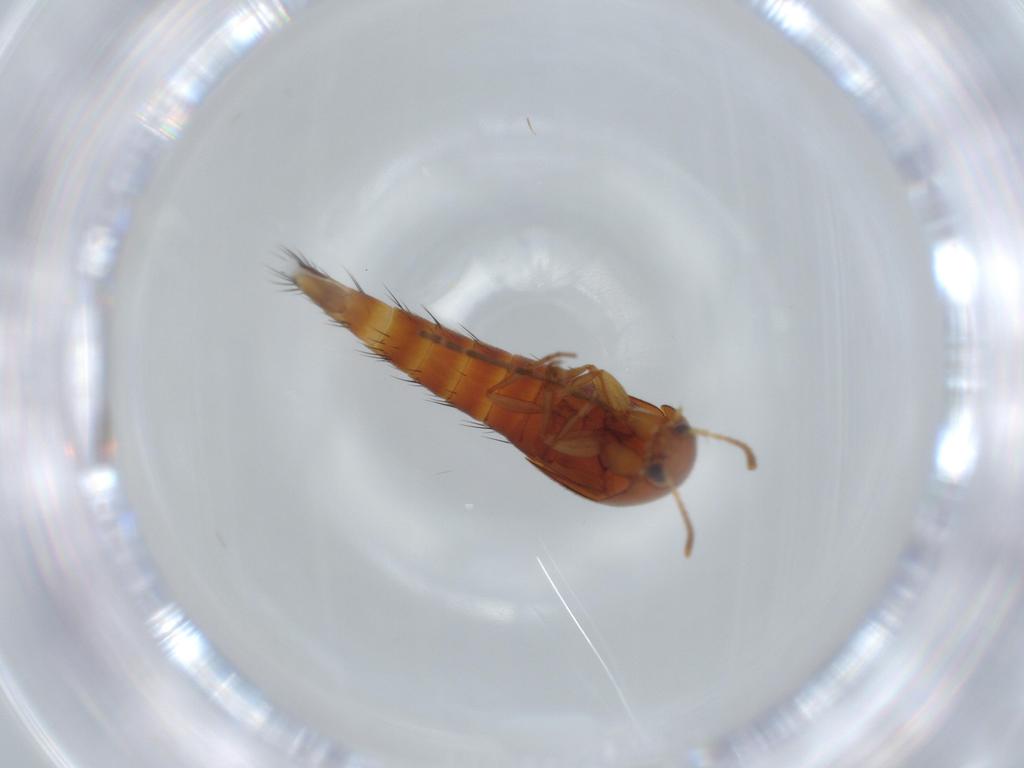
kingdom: Animalia
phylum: Arthropoda
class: Insecta
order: Coleoptera
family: Staphylinidae
